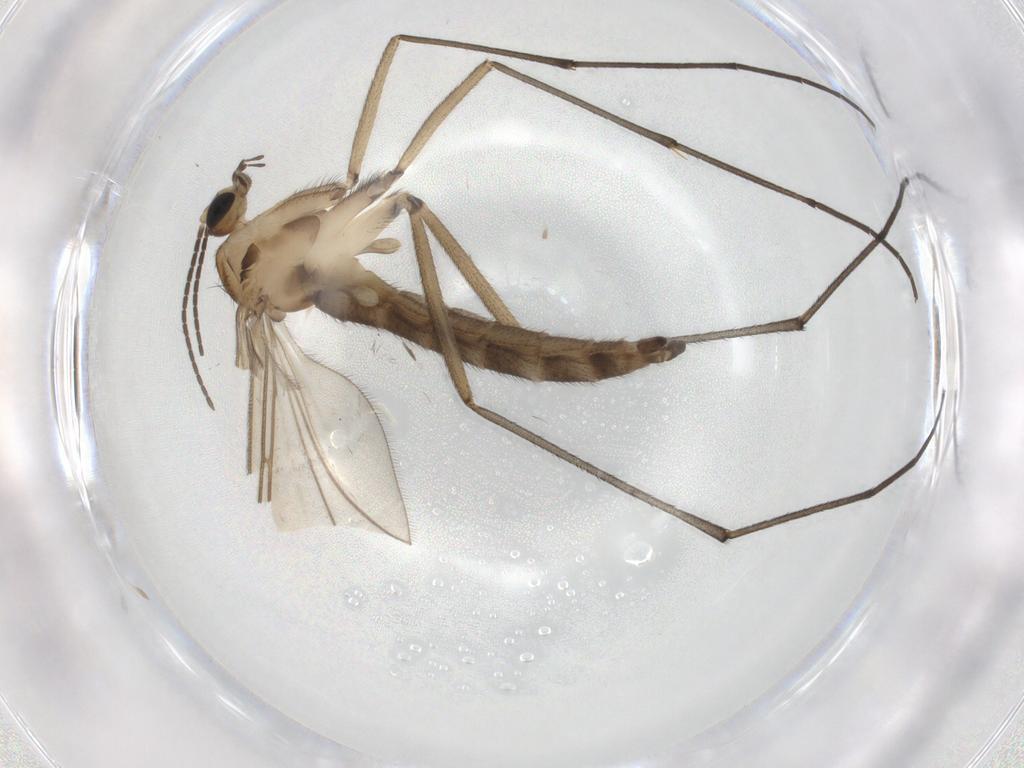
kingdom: Animalia
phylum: Arthropoda
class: Insecta
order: Diptera
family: Sciaridae
